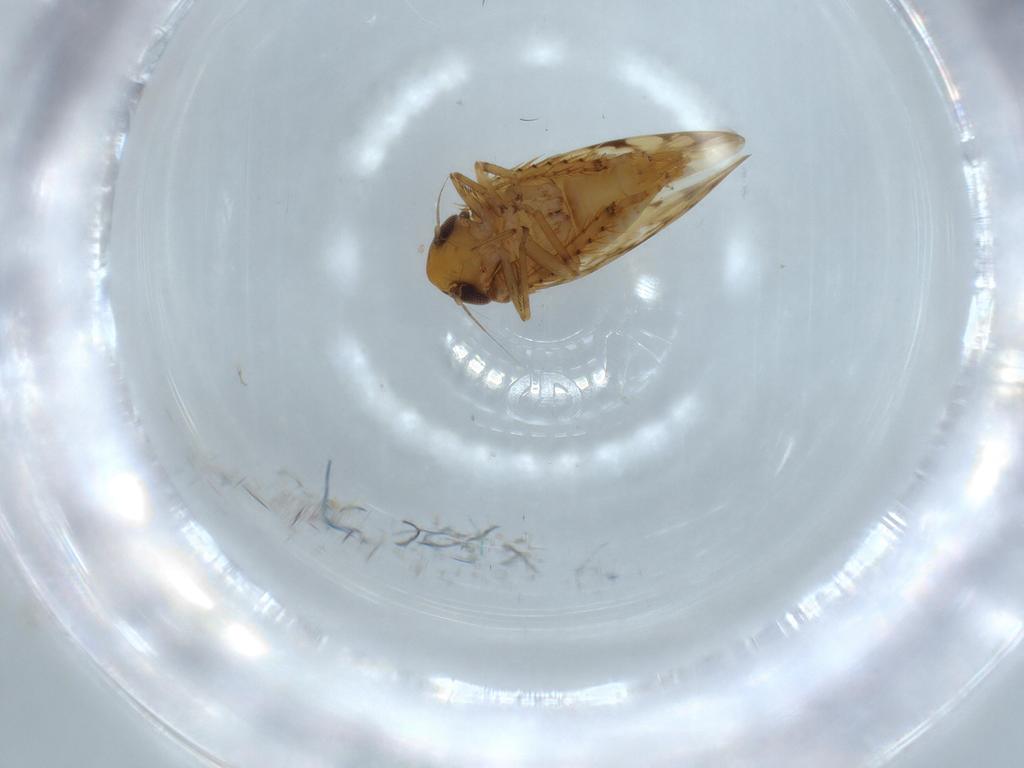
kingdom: Animalia
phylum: Arthropoda
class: Insecta
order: Hemiptera
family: Cicadellidae
